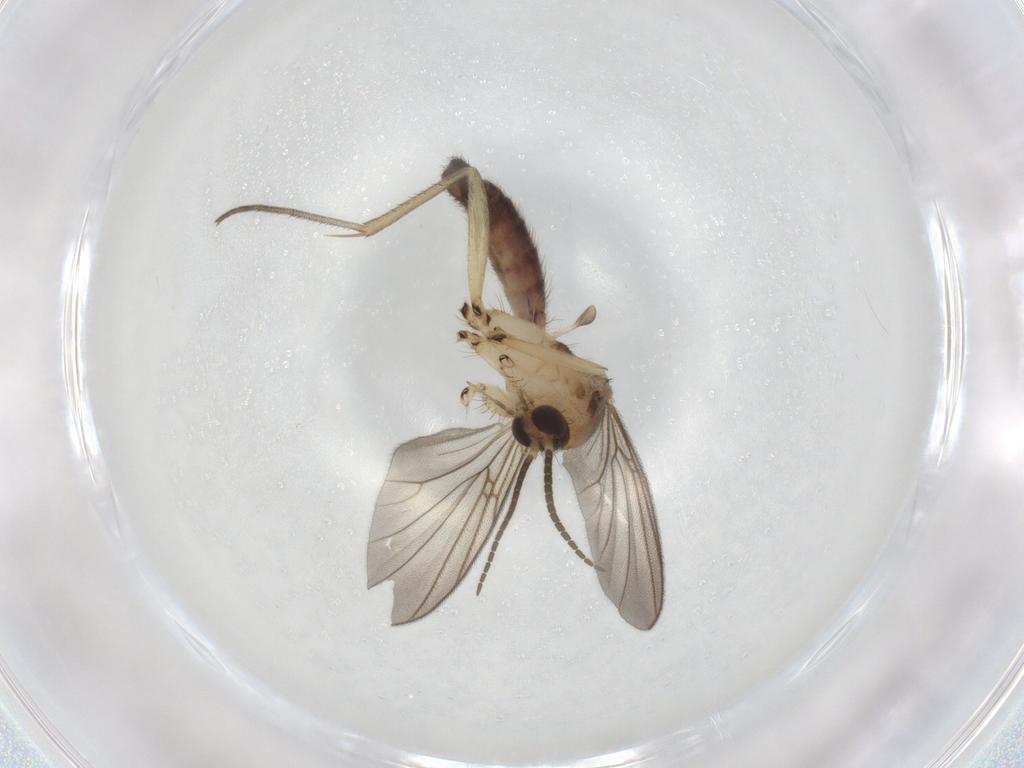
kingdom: Animalia
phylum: Arthropoda
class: Insecta
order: Diptera
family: Mycetophilidae
